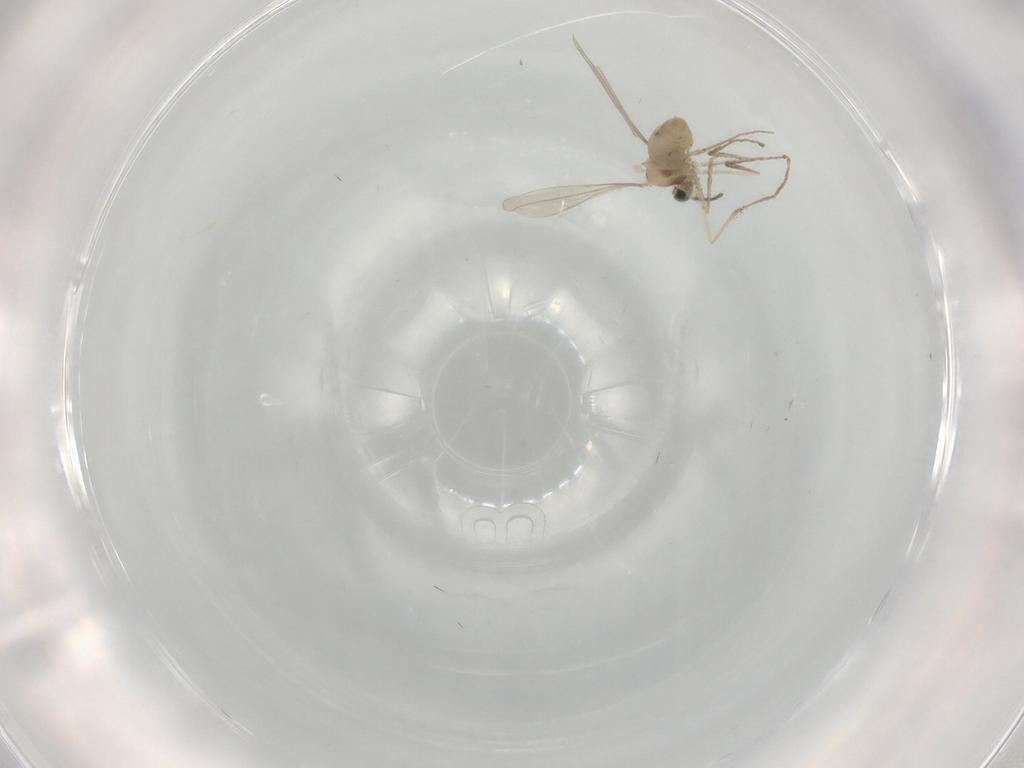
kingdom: Animalia
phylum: Arthropoda
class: Insecta
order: Diptera
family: Cecidomyiidae
